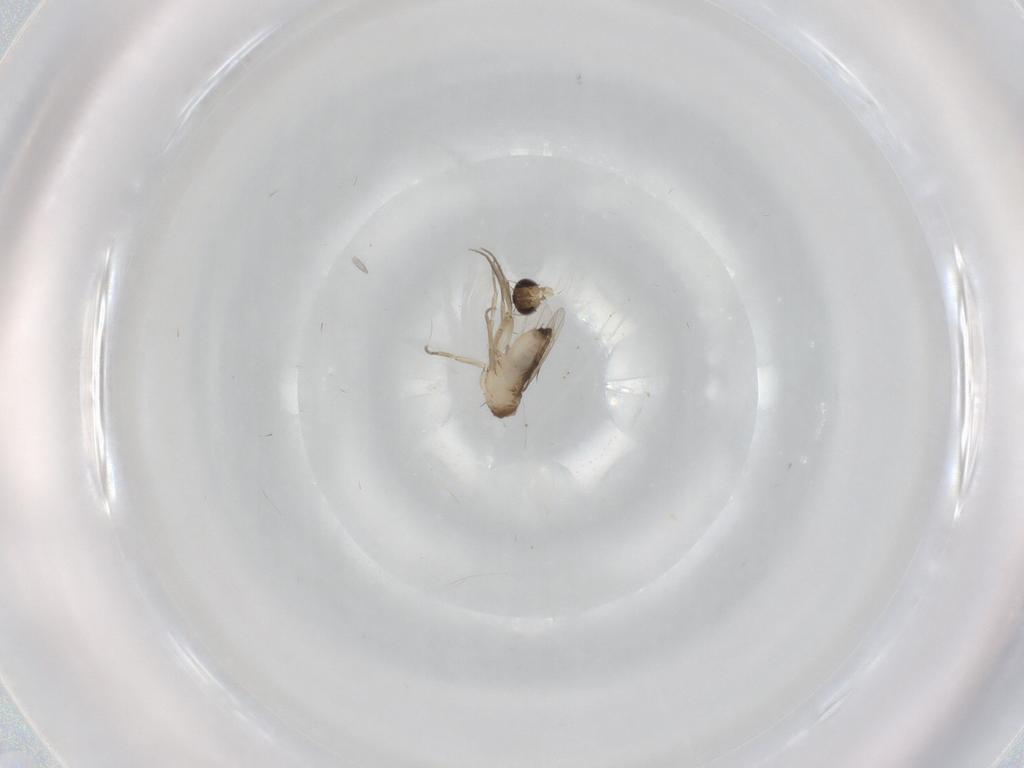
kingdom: Animalia
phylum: Arthropoda
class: Insecta
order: Diptera
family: Phoridae
